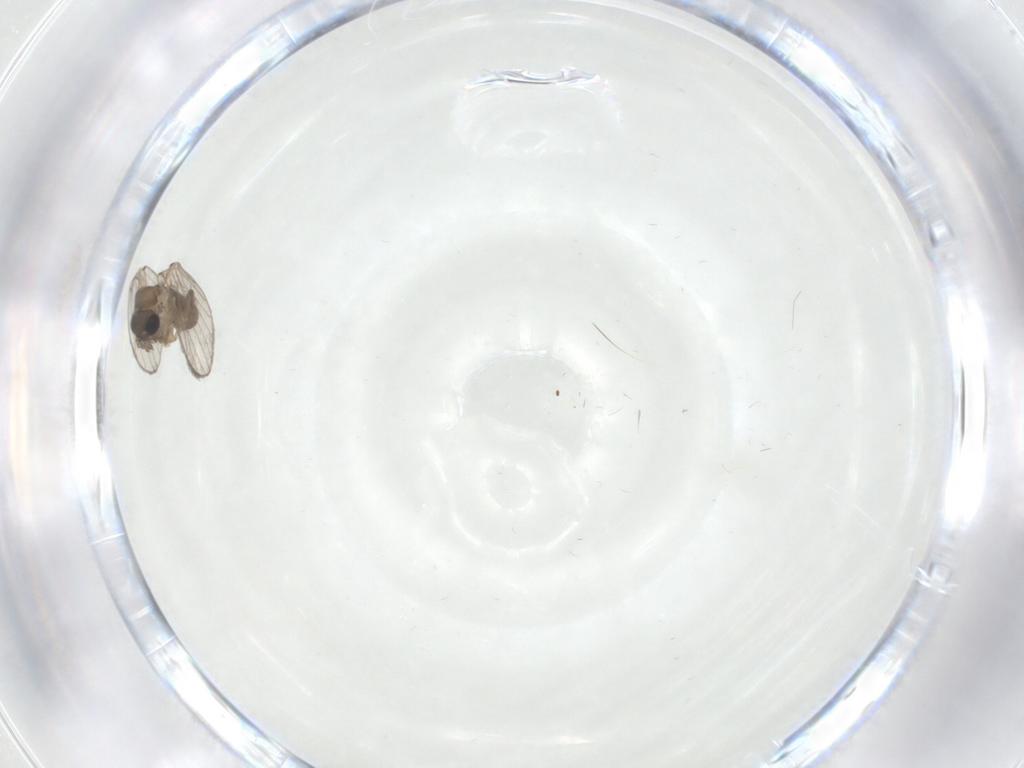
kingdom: Animalia
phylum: Arthropoda
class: Insecta
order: Diptera
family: Psychodidae
